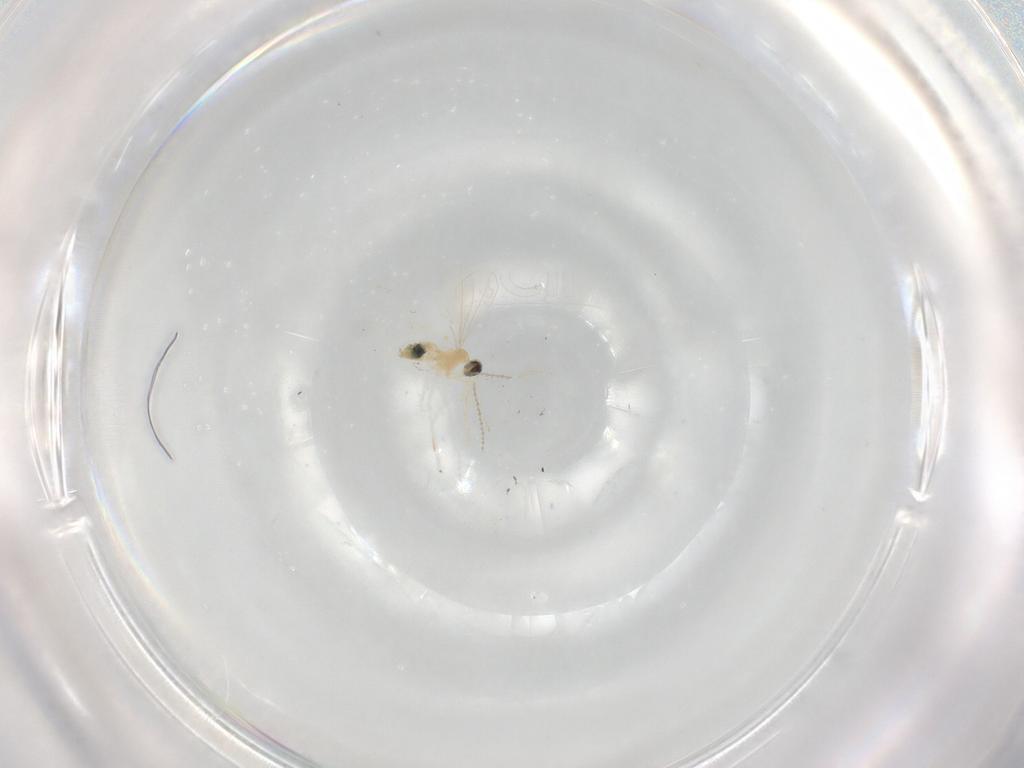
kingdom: Animalia
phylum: Arthropoda
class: Insecta
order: Diptera
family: Cecidomyiidae
